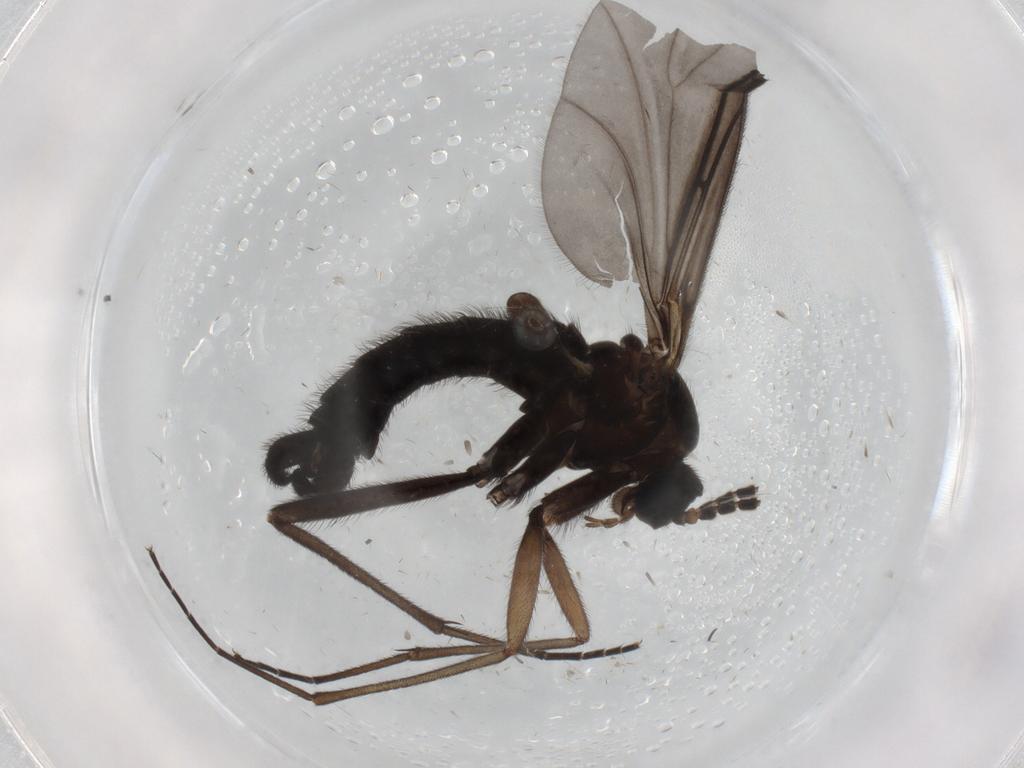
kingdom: Animalia
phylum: Arthropoda
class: Insecta
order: Diptera
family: Sciaridae
